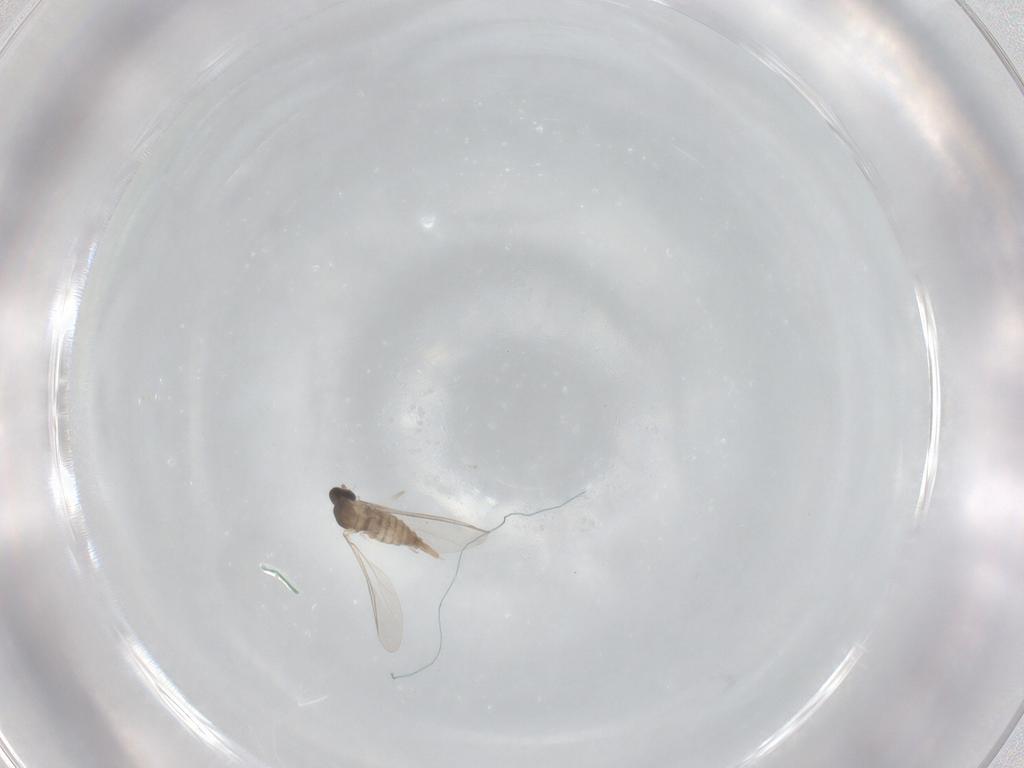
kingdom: Animalia
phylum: Arthropoda
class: Insecta
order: Diptera
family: Cecidomyiidae
